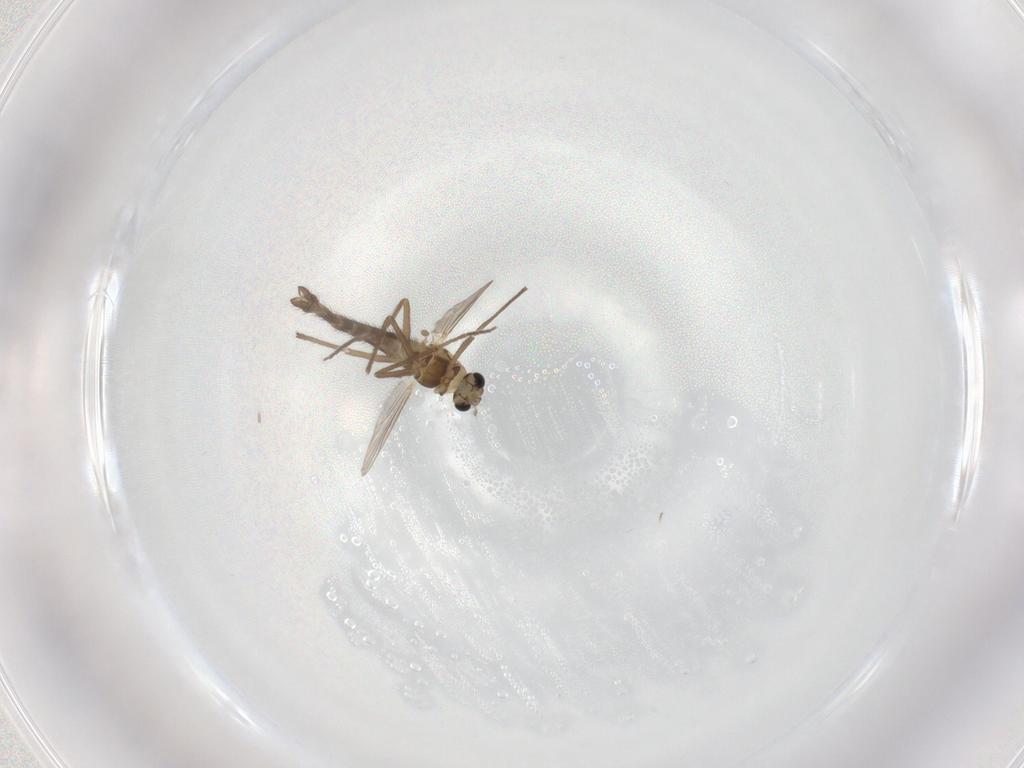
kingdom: Animalia
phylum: Arthropoda
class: Insecta
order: Diptera
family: Chironomidae
